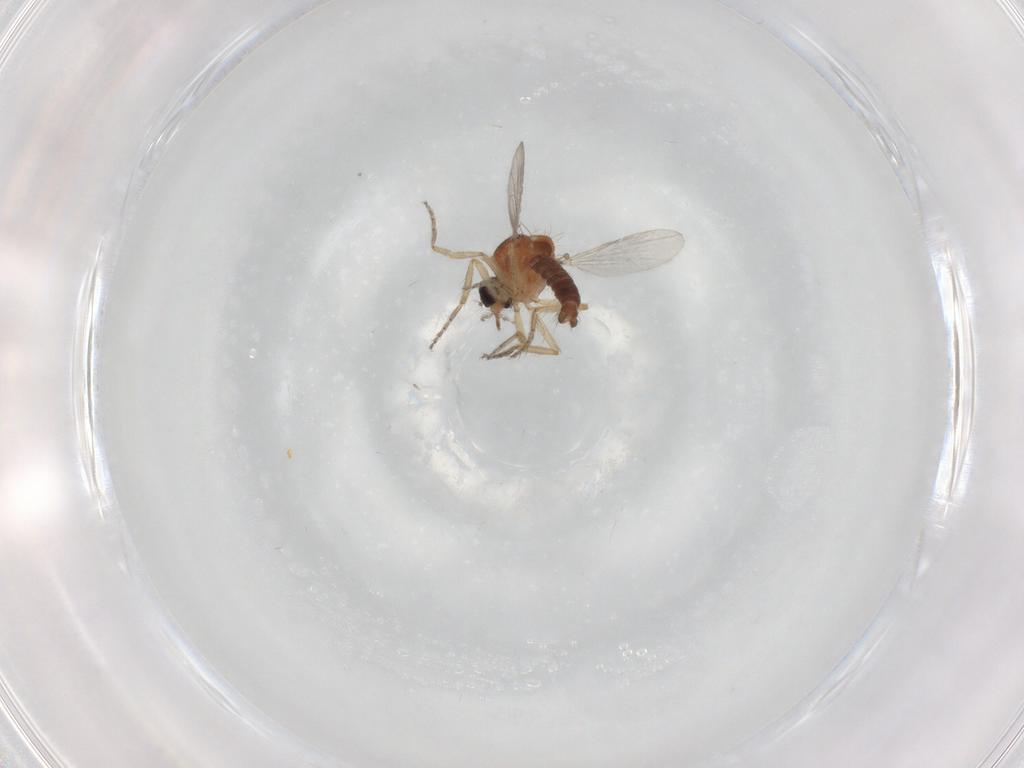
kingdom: Animalia
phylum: Arthropoda
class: Insecta
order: Diptera
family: Ceratopogonidae
